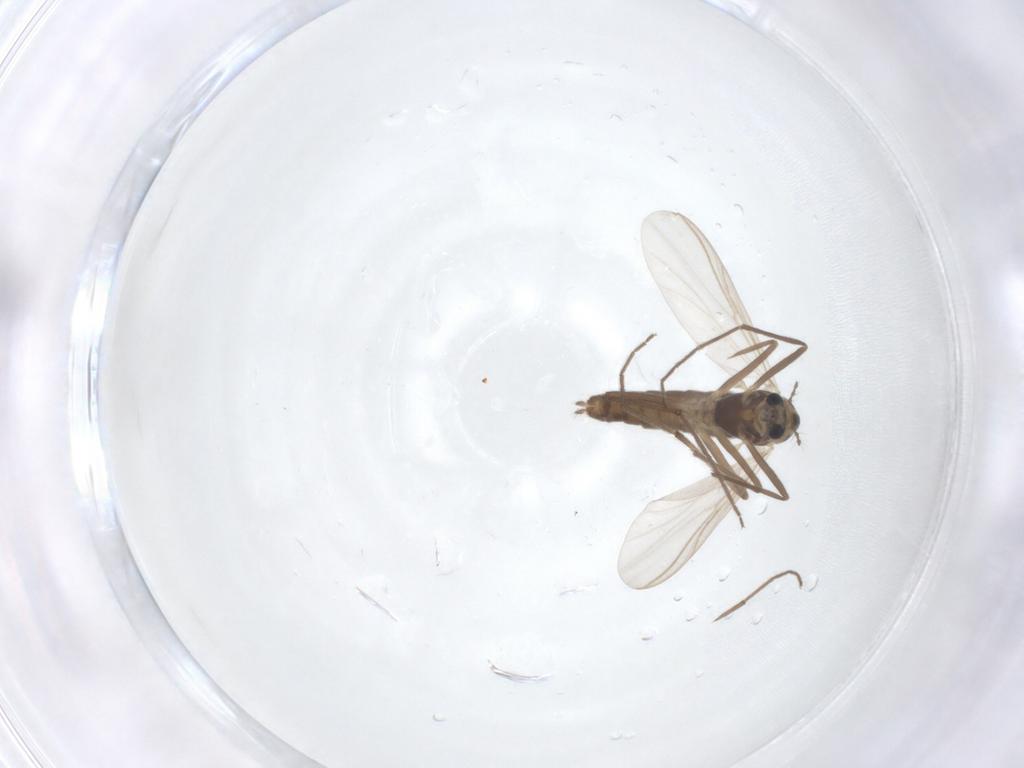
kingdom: Animalia
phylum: Arthropoda
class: Insecta
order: Diptera
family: Chironomidae
